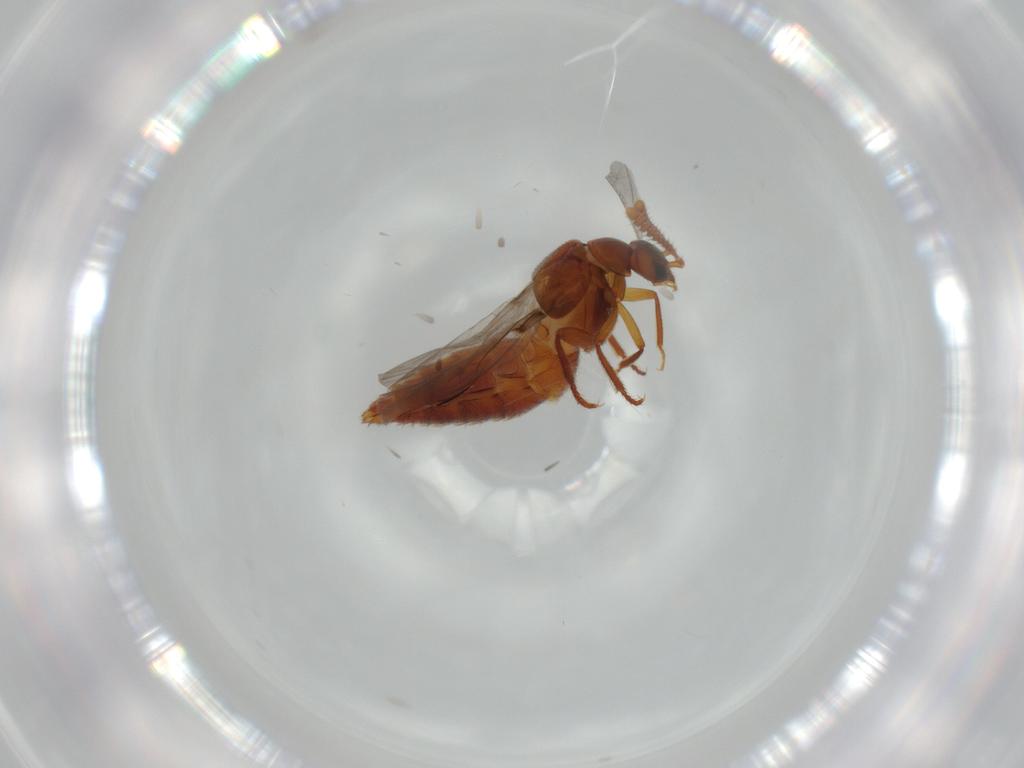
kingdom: Animalia
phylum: Arthropoda
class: Insecta
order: Coleoptera
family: Staphylinidae
